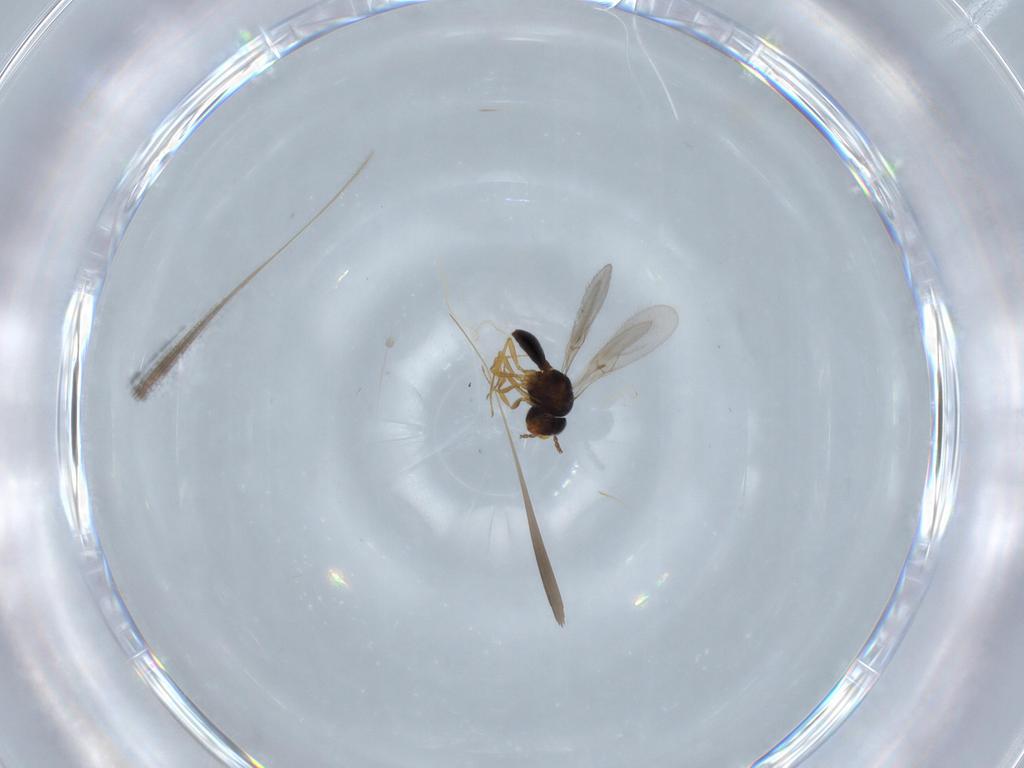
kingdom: Animalia
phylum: Arthropoda
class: Insecta
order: Hymenoptera
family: Scelionidae
